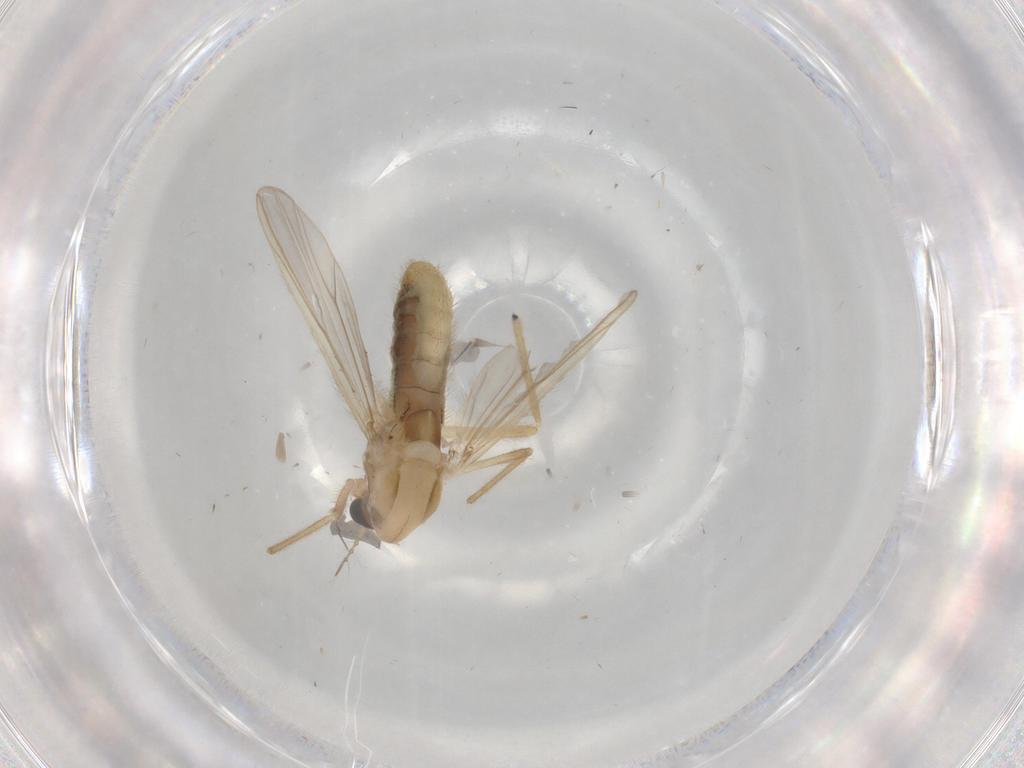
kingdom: Animalia
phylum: Arthropoda
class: Insecta
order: Diptera
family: Chironomidae
